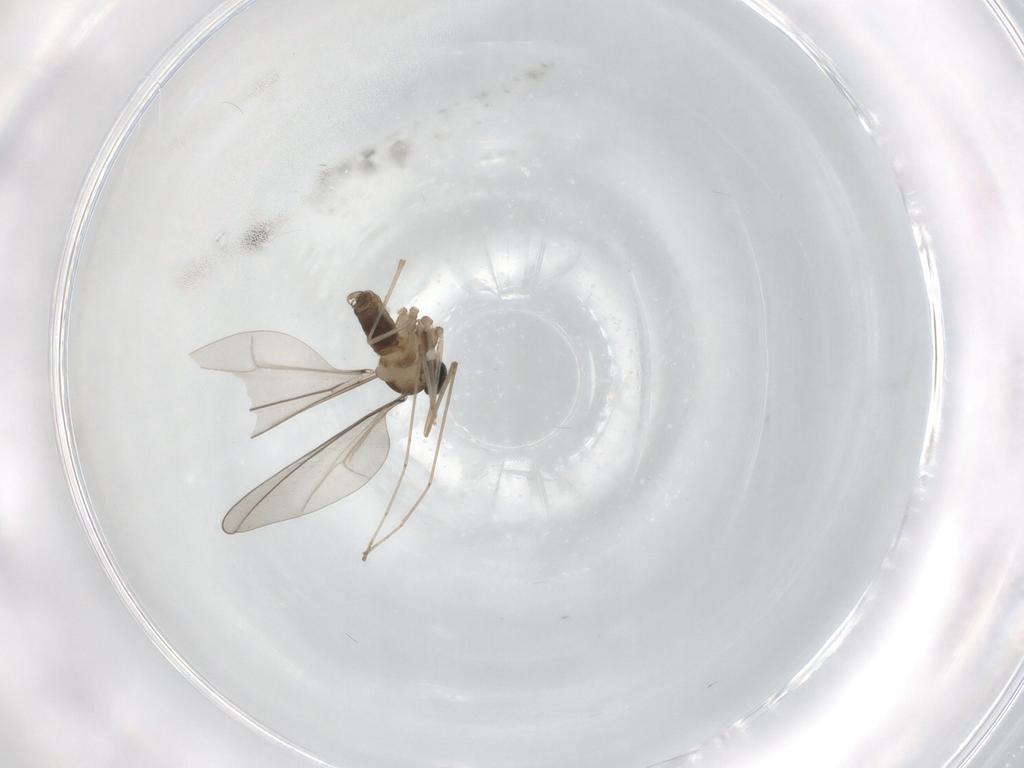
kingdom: Animalia
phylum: Arthropoda
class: Insecta
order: Diptera
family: Cecidomyiidae
